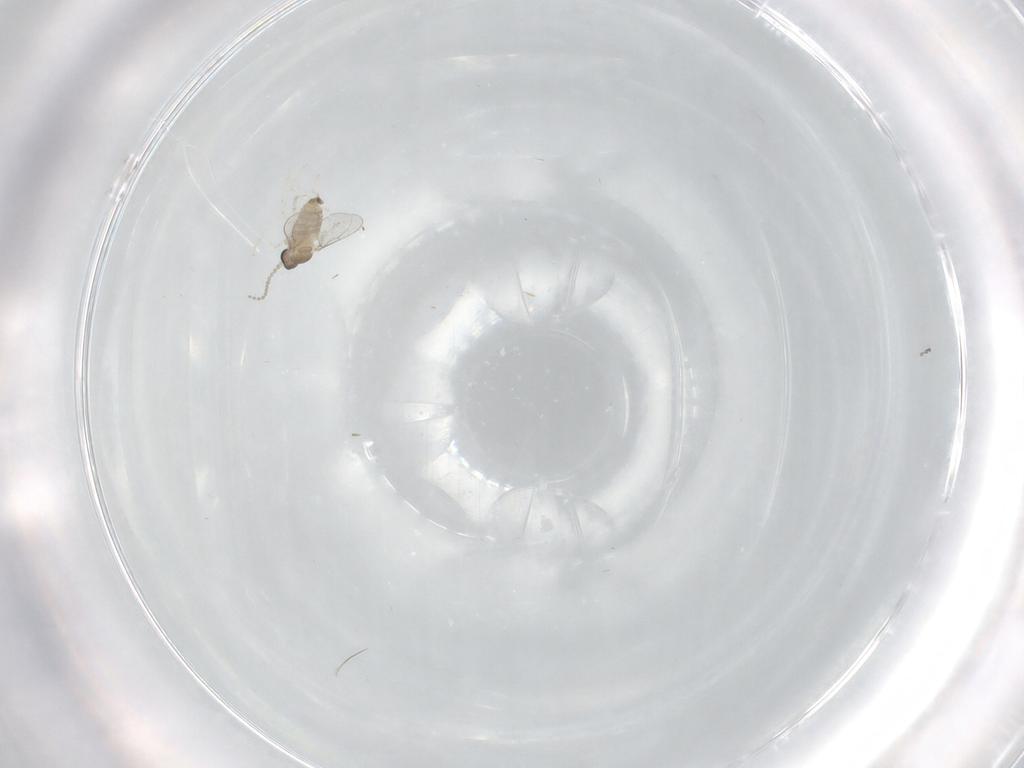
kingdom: Animalia
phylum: Arthropoda
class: Insecta
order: Diptera
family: Cecidomyiidae
